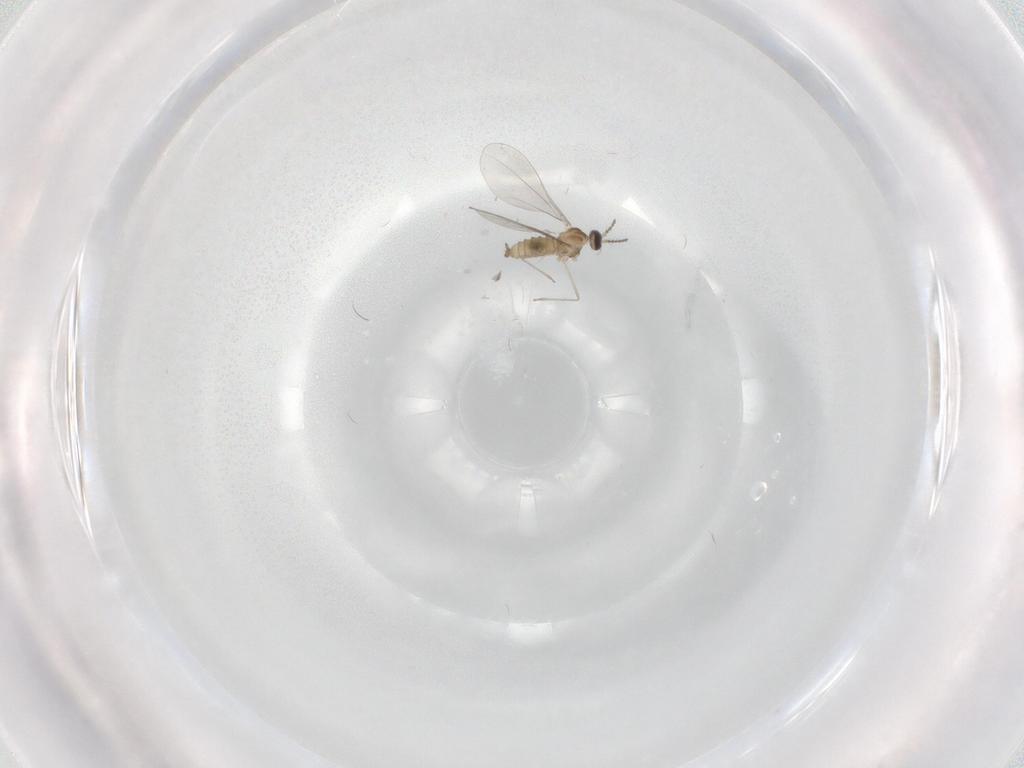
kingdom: Animalia
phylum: Arthropoda
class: Insecta
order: Diptera
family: Cecidomyiidae
